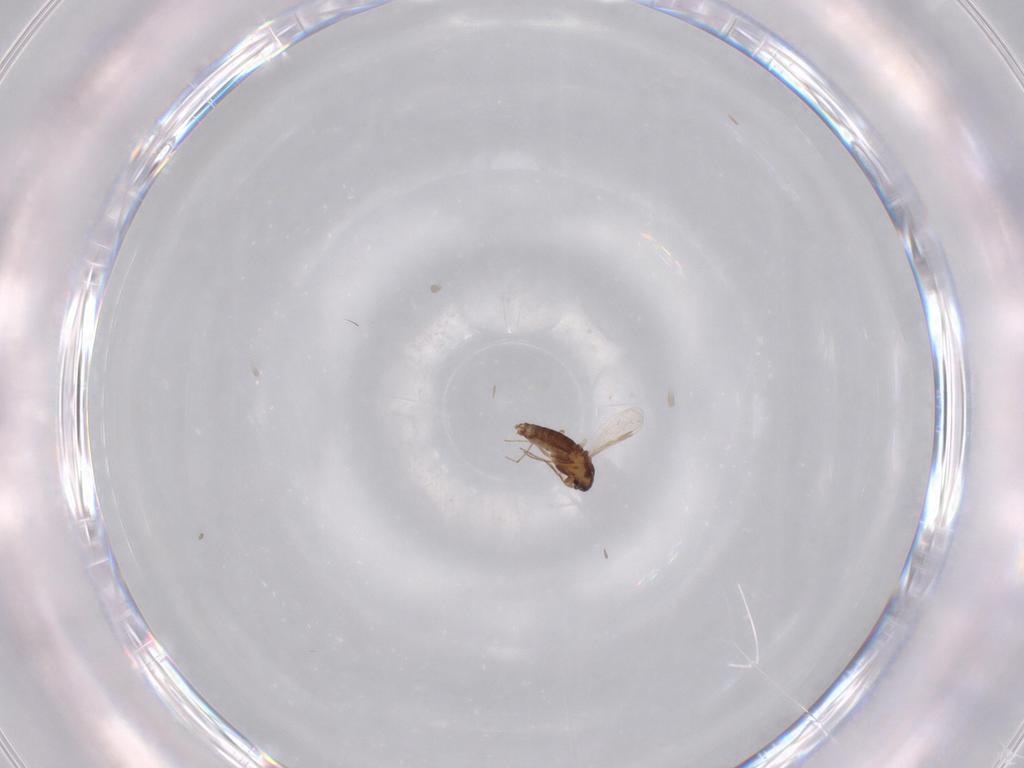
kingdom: Animalia
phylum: Arthropoda
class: Insecta
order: Diptera
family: Chironomidae
